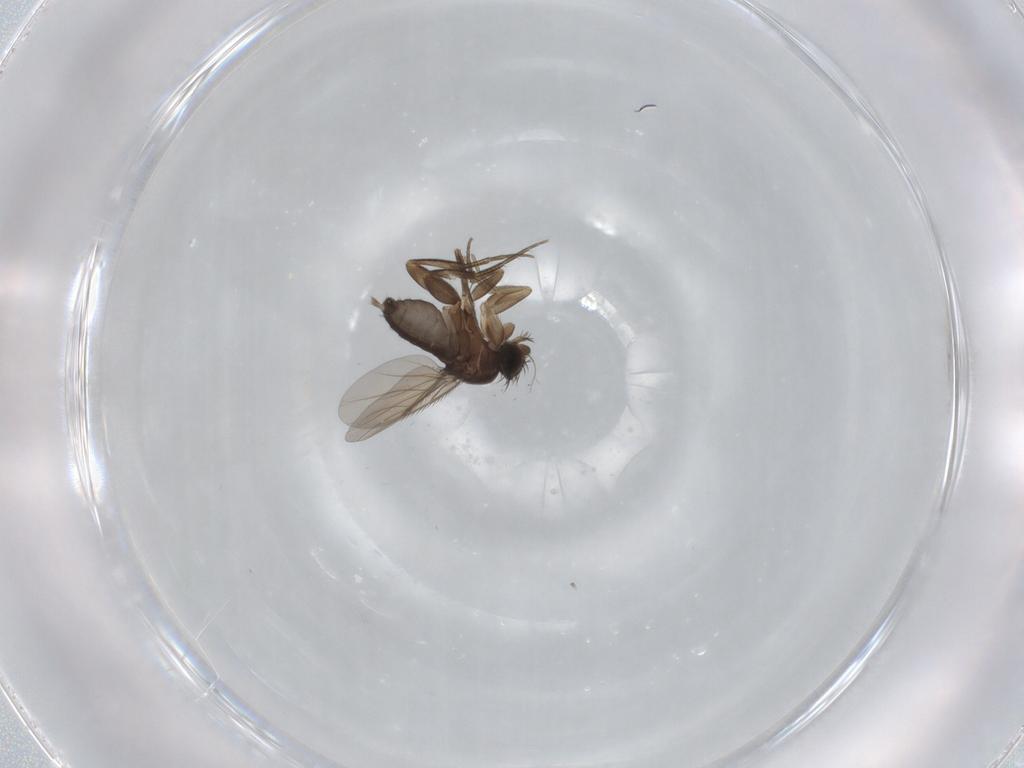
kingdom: Animalia
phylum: Arthropoda
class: Insecta
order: Diptera
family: Phoridae
